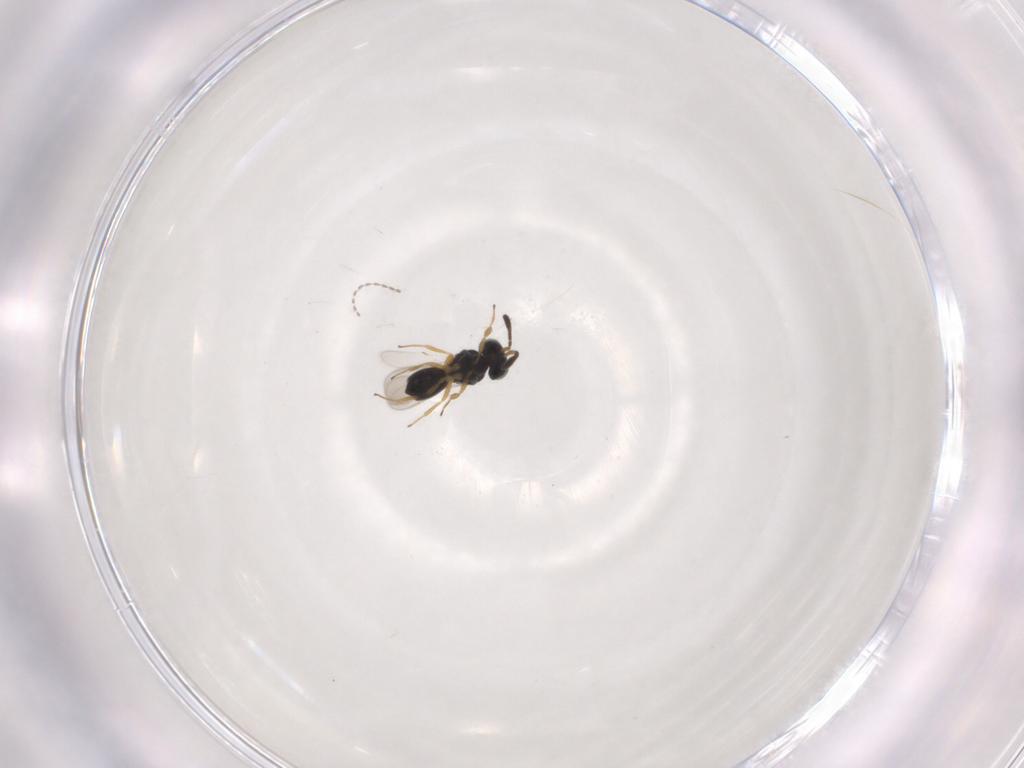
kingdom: Animalia
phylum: Arthropoda
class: Insecta
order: Hymenoptera
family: Scelionidae
